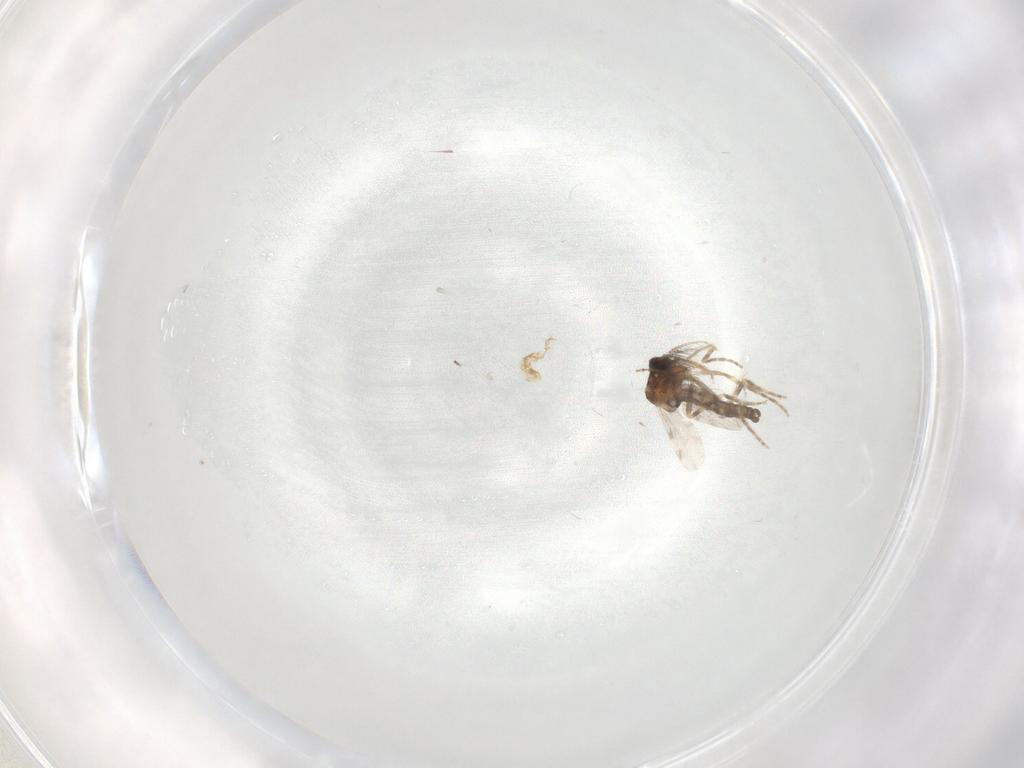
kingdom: Animalia
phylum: Arthropoda
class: Insecta
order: Diptera
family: Ceratopogonidae
